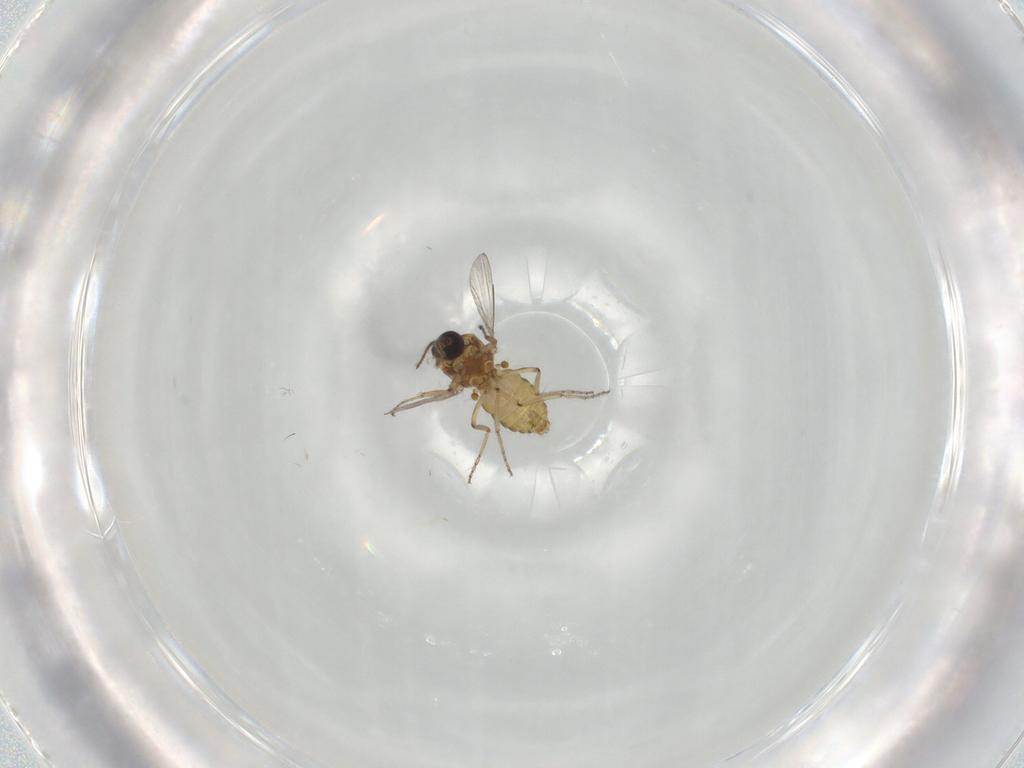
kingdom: Animalia
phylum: Arthropoda
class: Insecta
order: Diptera
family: Ceratopogonidae
